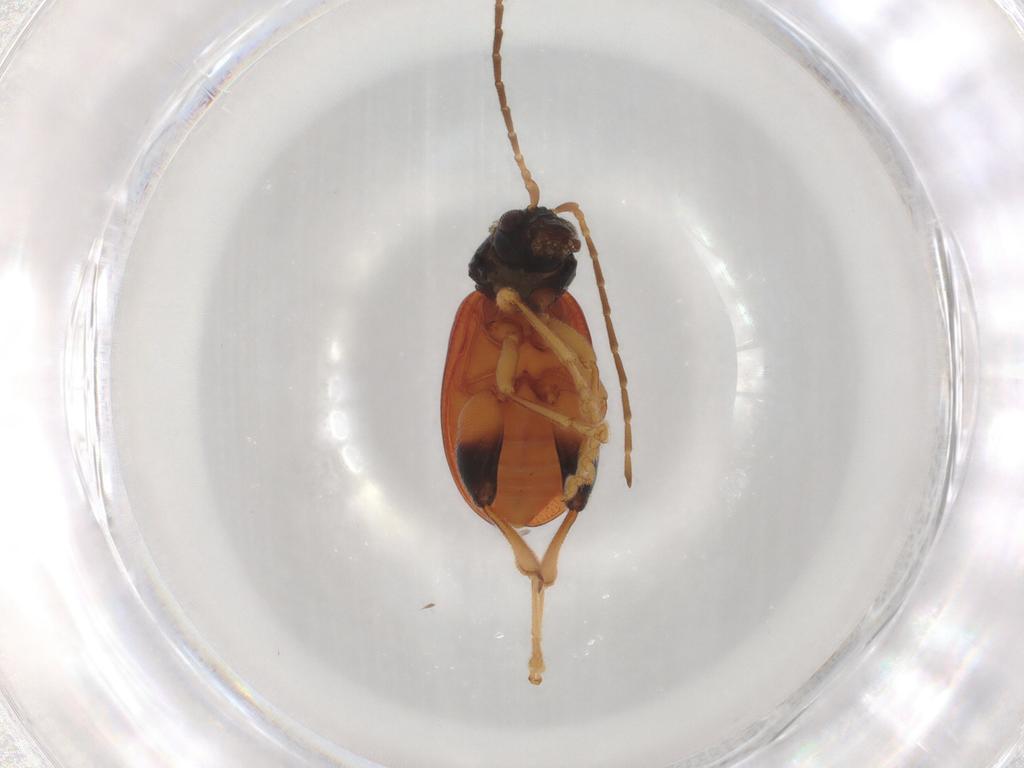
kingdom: Animalia
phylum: Arthropoda
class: Insecta
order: Coleoptera
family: Chrysomelidae
